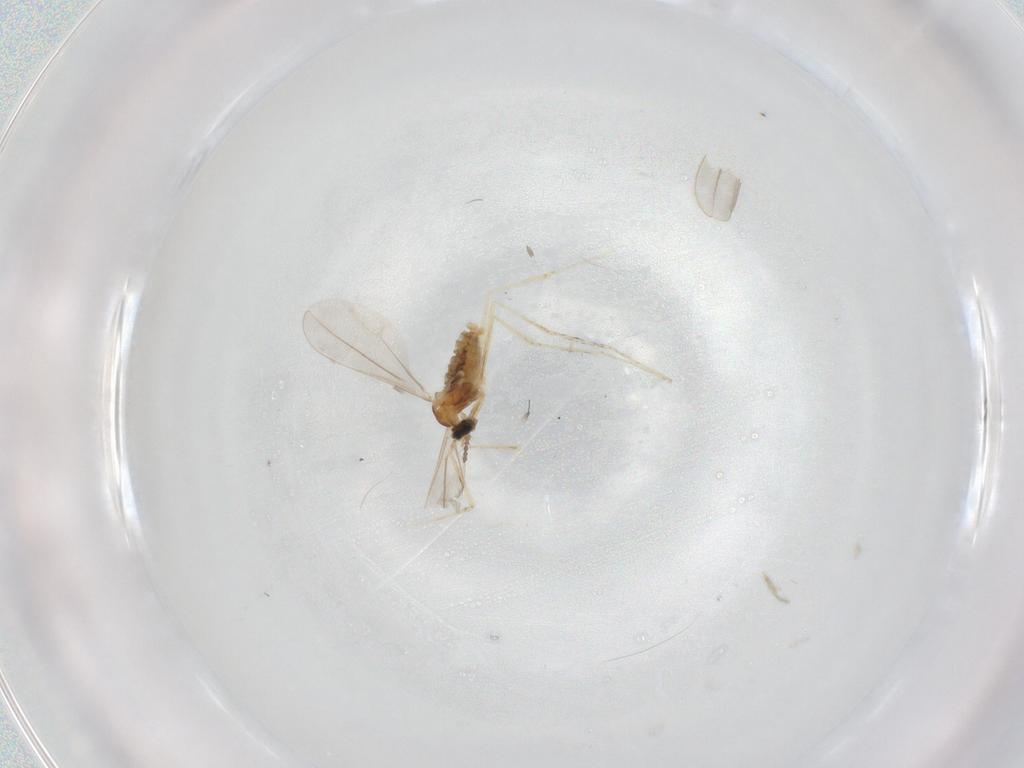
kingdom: Animalia
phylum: Arthropoda
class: Insecta
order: Diptera
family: Cecidomyiidae
